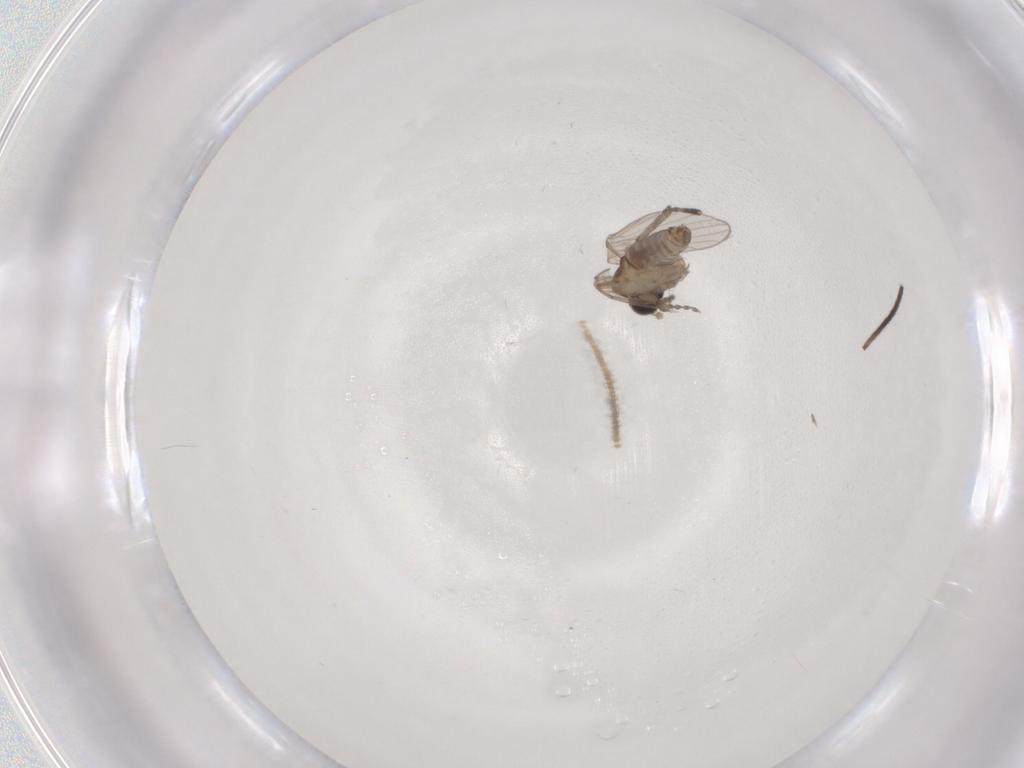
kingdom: Animalia
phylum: Arthropoda
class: Insecta
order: Diptera
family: Chironomidae
